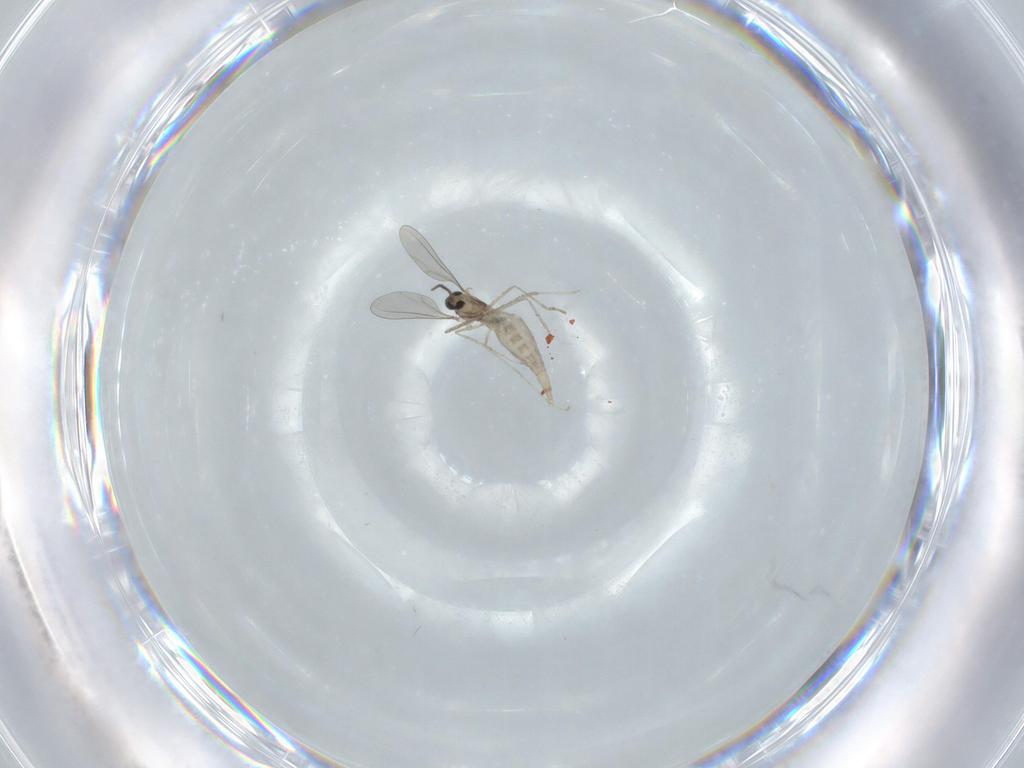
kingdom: Animalia
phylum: Arthropoda
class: Insecta
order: Diptera
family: Cecidomyiidae
